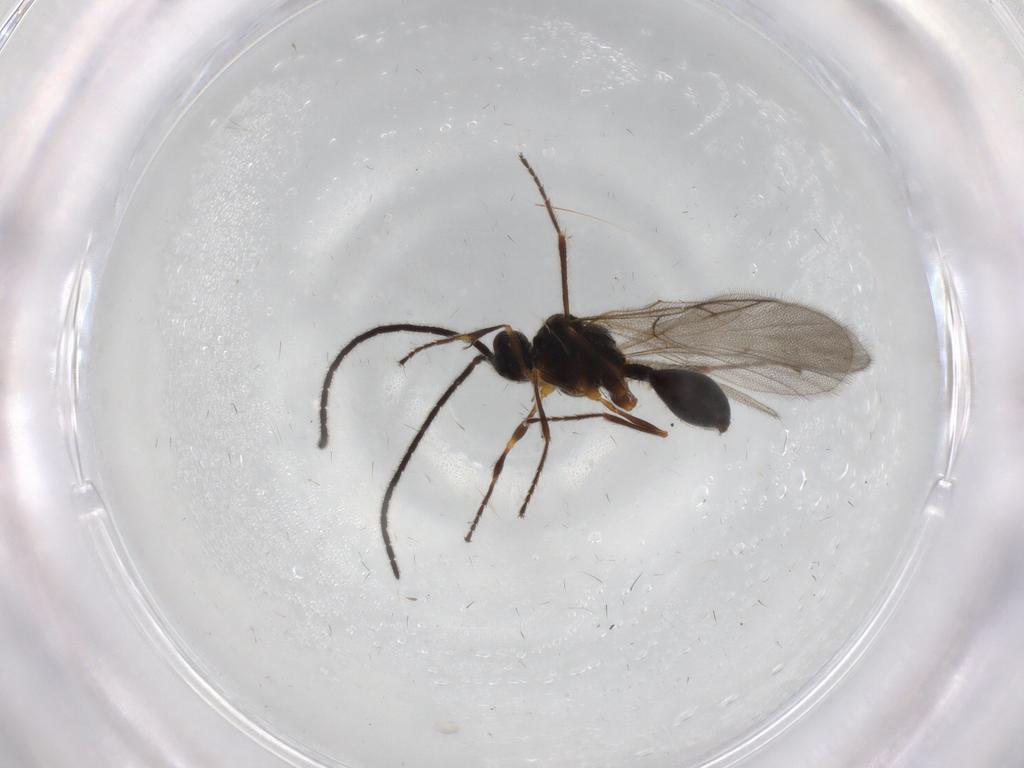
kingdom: Animalia
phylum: Arthropoda
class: Insecta
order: Hymenoptera
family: Diapriidae
